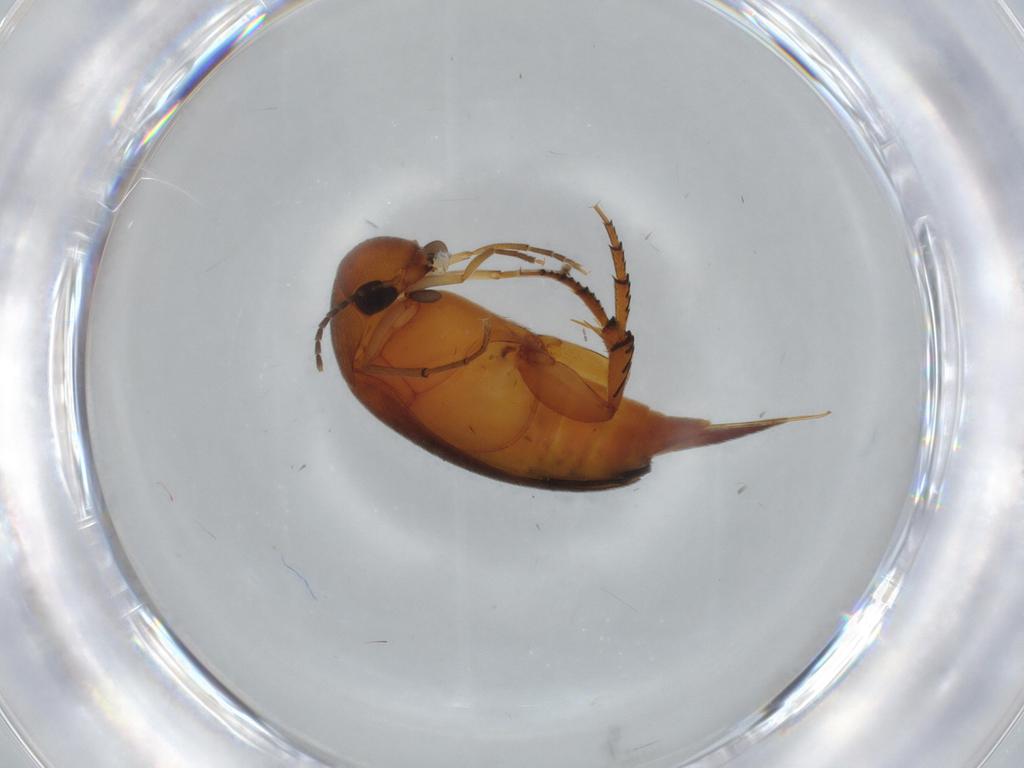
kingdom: Animalia
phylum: Arthropoda
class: Insecta
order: Coleoptera
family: Mordellidae
